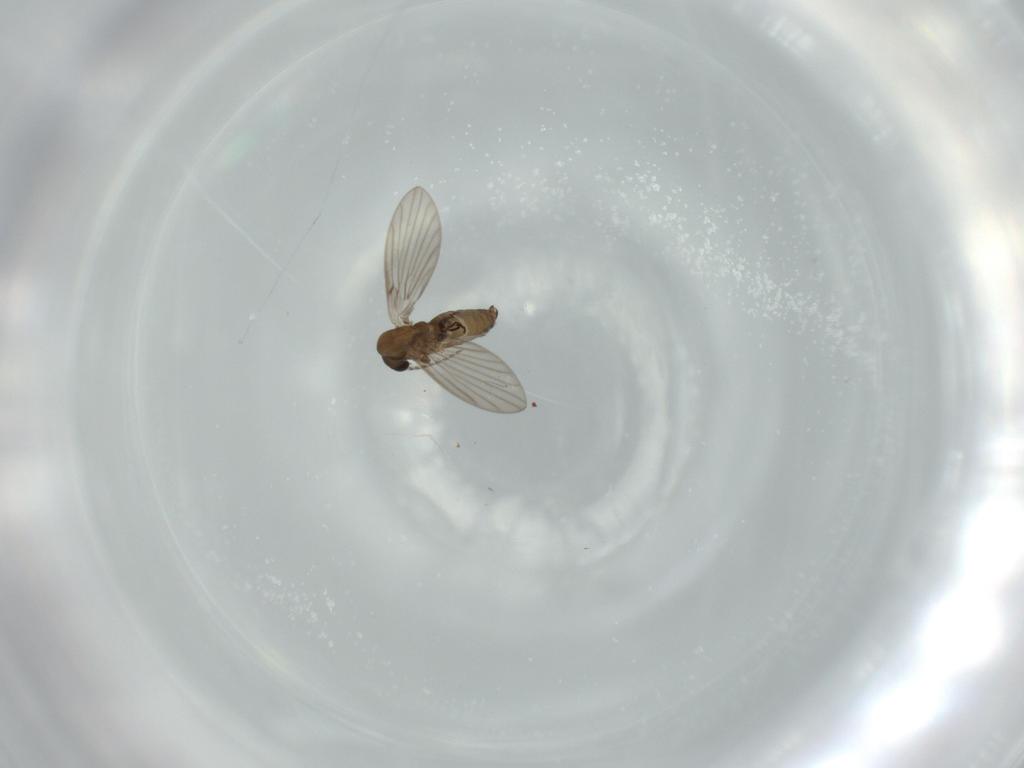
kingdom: Animalia
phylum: Arthropoda
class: Insecta
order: Diptera
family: Psychodidae
